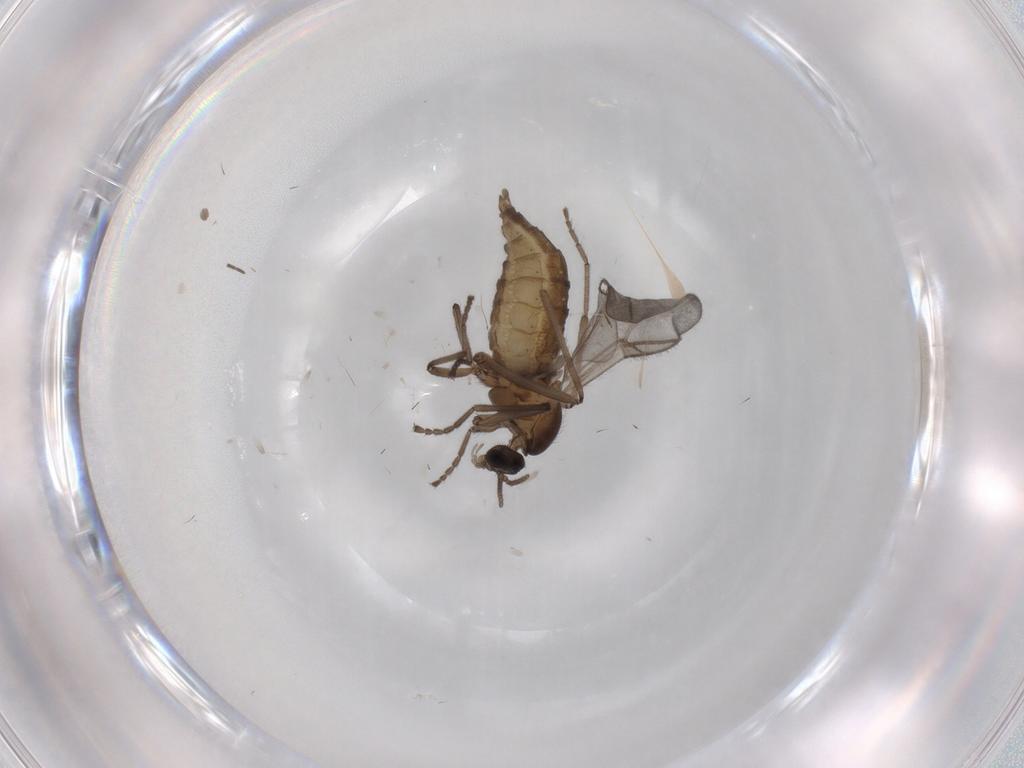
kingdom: Animalia
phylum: Arthropoda
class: Insecta
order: Diptera
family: Cecidomyiidae
